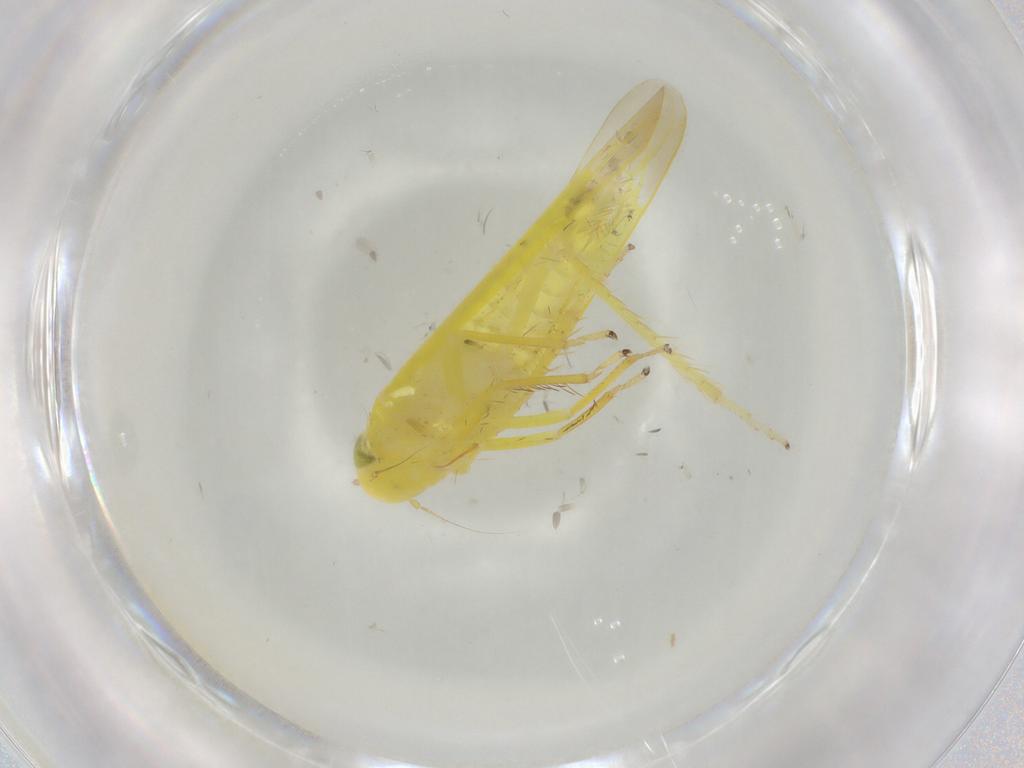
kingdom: Animalia
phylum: Arthropoda
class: Insecta
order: Hemiptera
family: Cicadellidae
